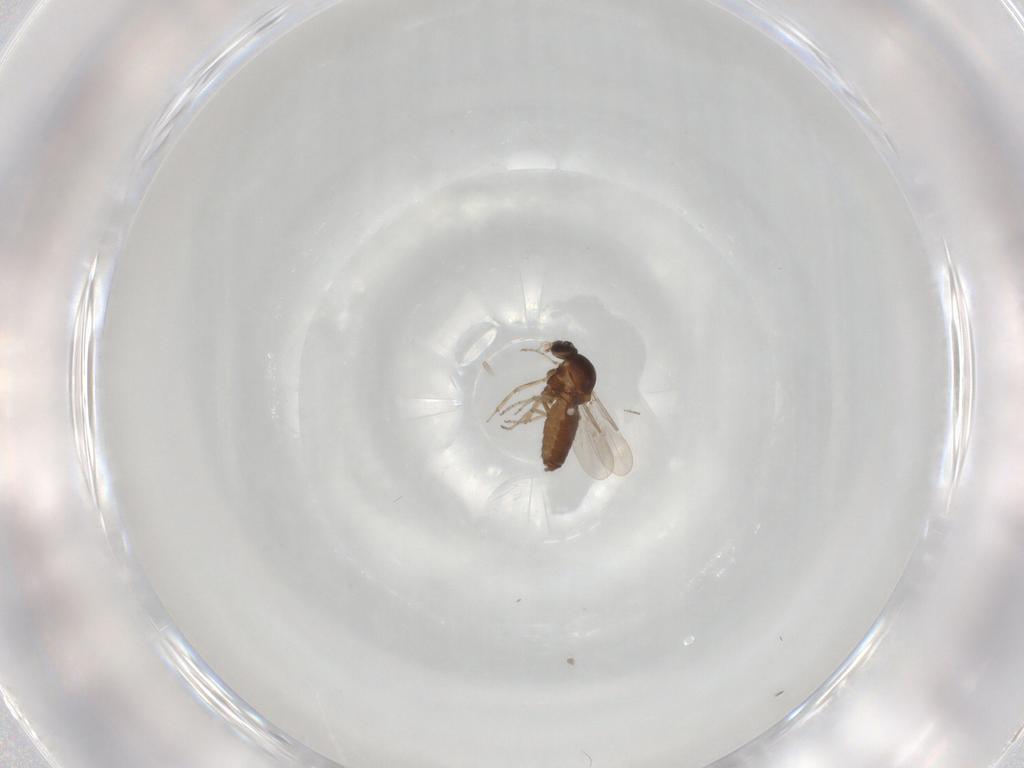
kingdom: Animalia
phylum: Arthropoda
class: Insecta
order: Diptera
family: Ceratopogonidae
